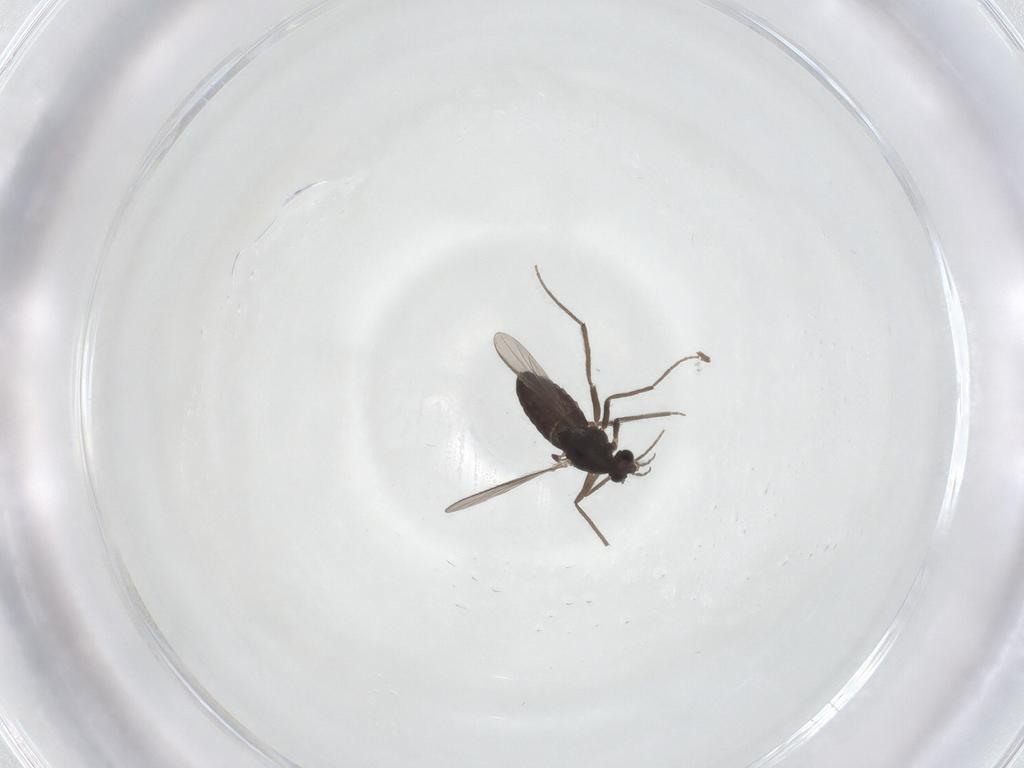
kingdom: Animalia
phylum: Arthropoda
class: Insecta
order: Diptera
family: Chironomidae
